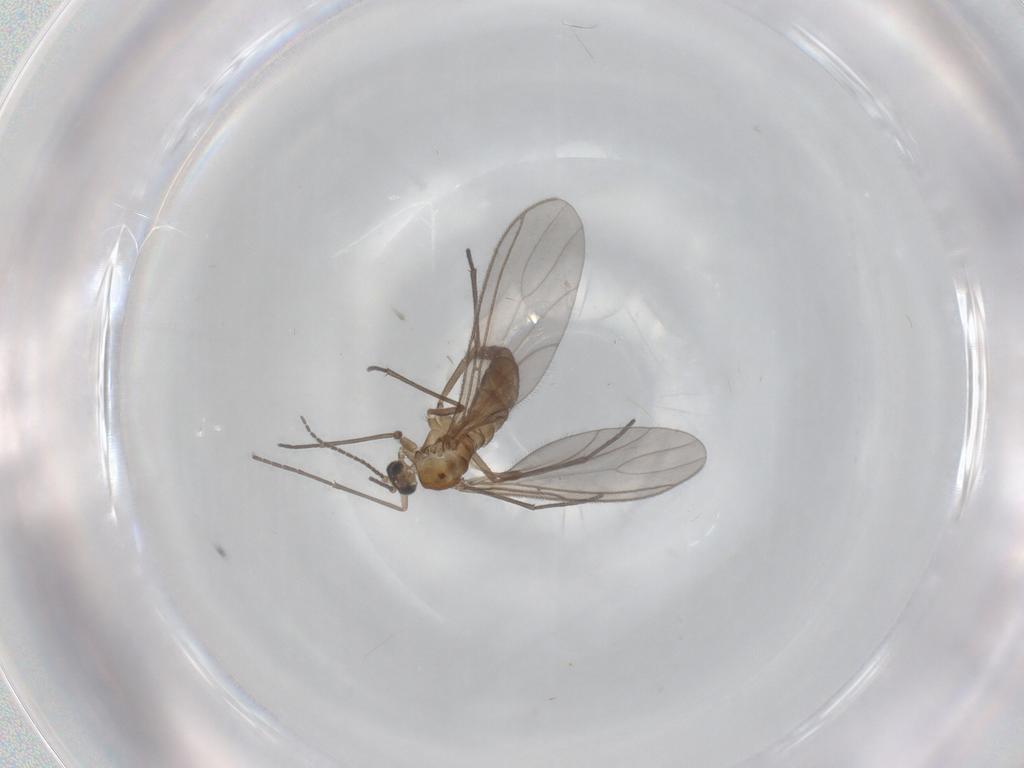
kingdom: Animalia
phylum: Arthropoda
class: Insecta
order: Diptera
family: Sciaridae
